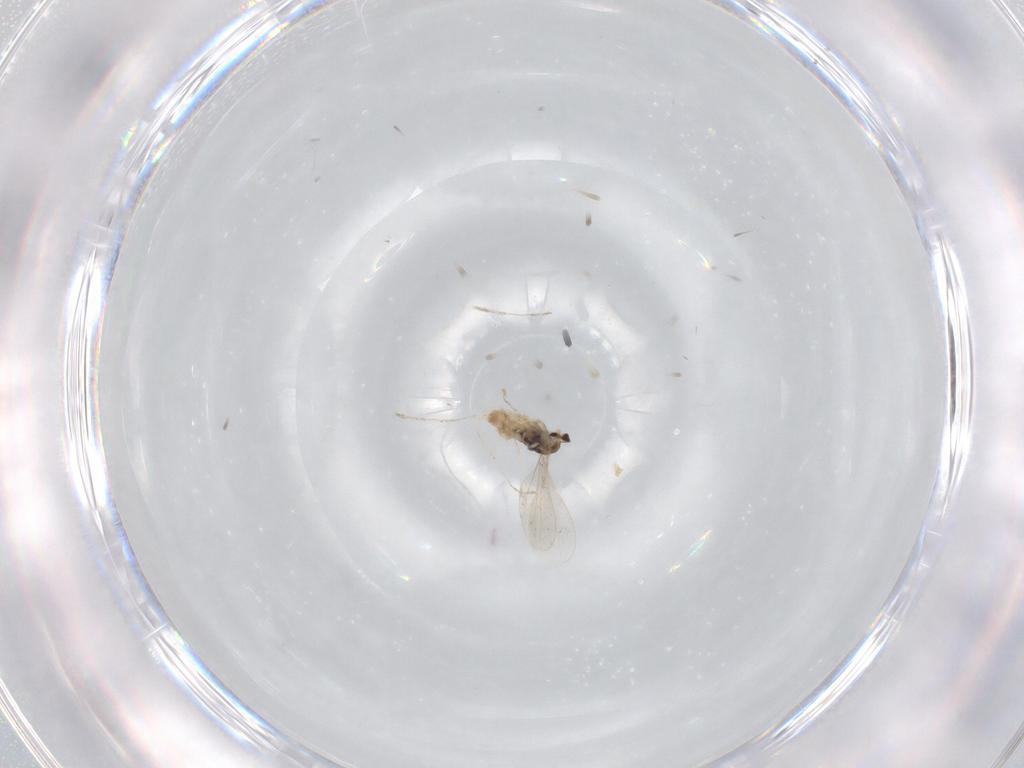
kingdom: Animalia
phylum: Arthropoda
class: Insecta
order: Diptera
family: Cecidomyiidae
